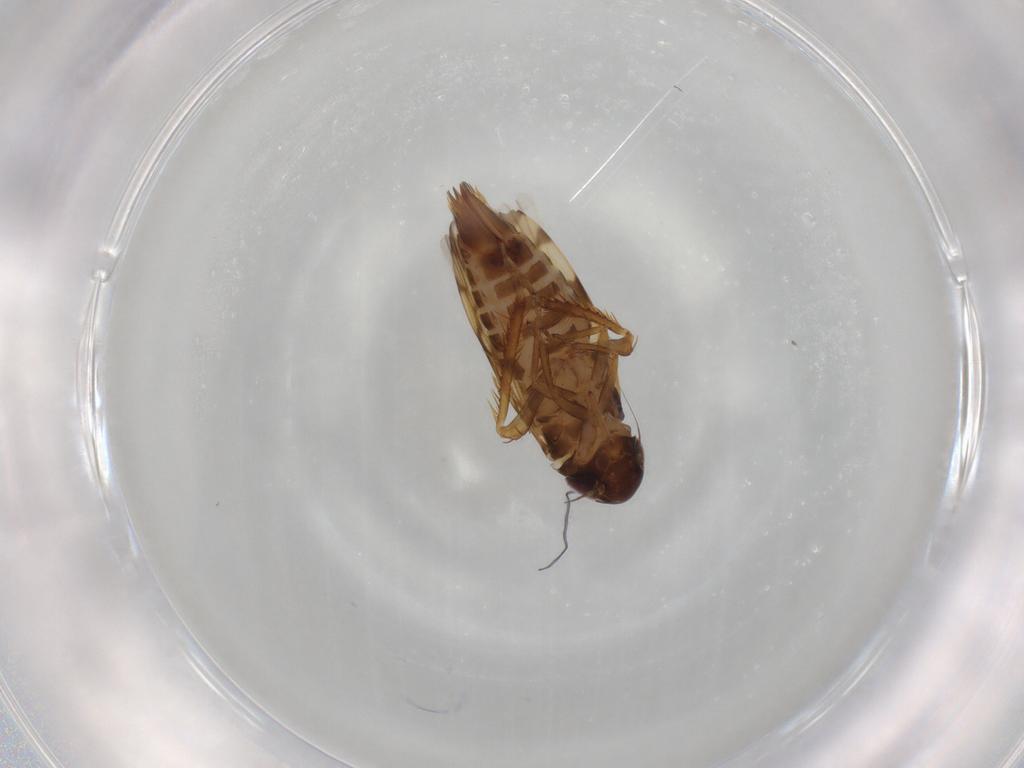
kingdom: Animalia
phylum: Arthropoda
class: Insecta
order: Hemiptera
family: Cicadellidae
